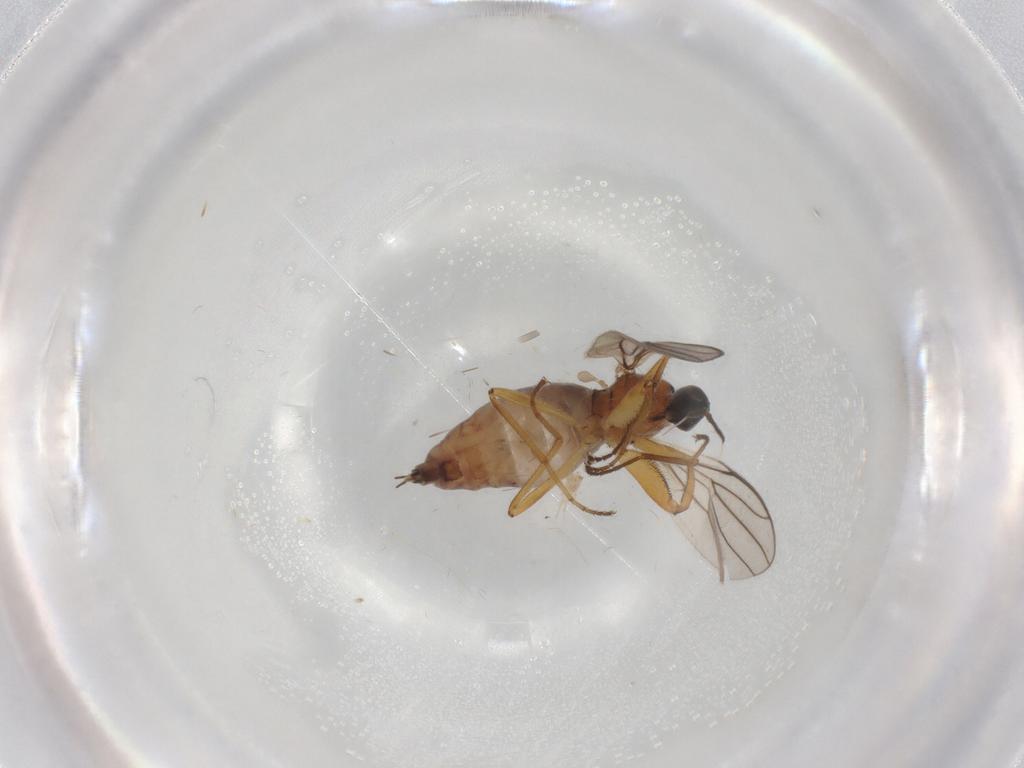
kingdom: Animalia
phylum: Arthropoda
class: Insecta
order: Diptera
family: Hybotidae
